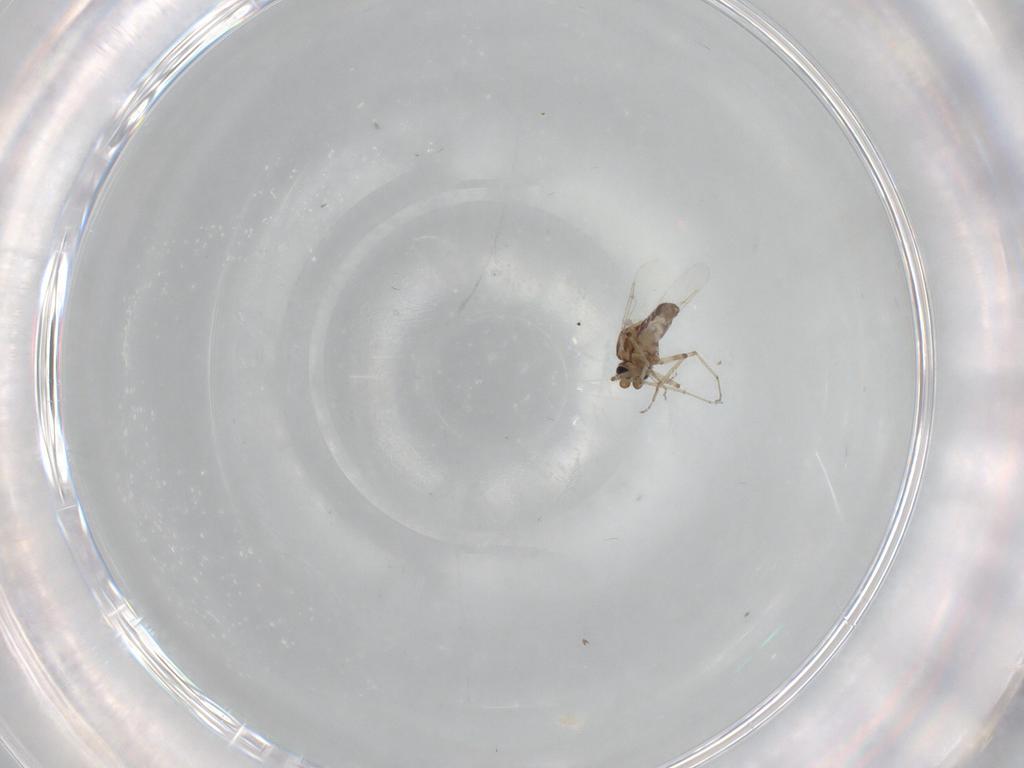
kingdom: Animalia
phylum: Arthropoda
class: Insecta
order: Diptera
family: Ceratopogonidae
